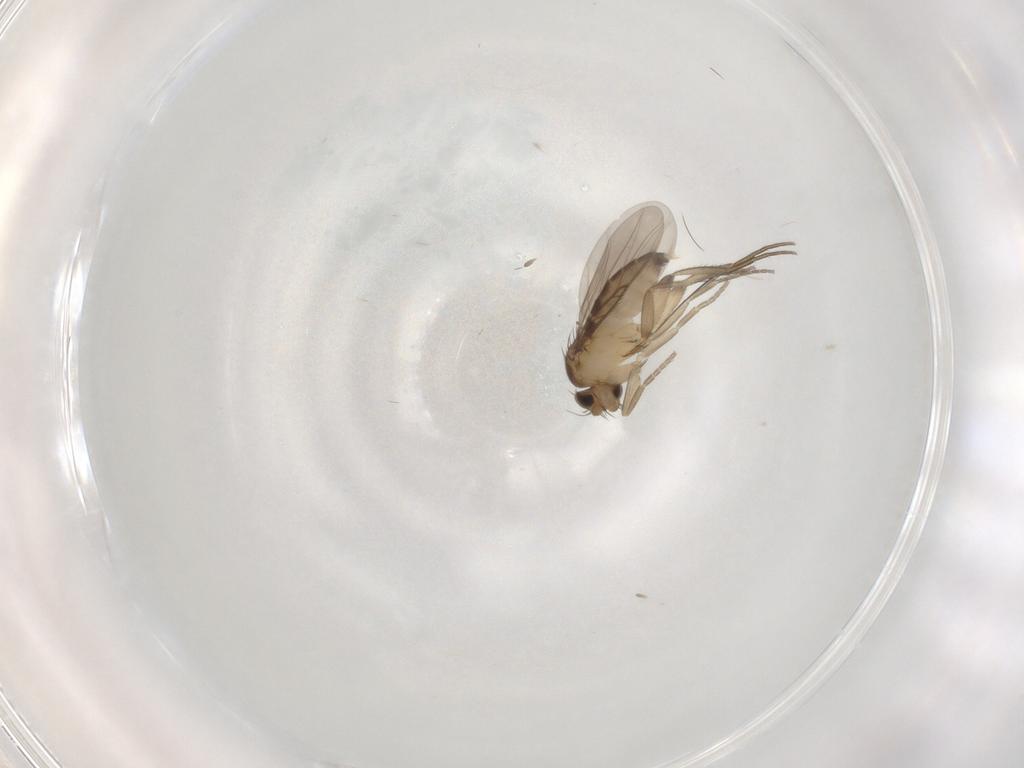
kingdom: Animalia
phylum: Arthropoda
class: Insecta
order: Diptera
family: Phoridae
